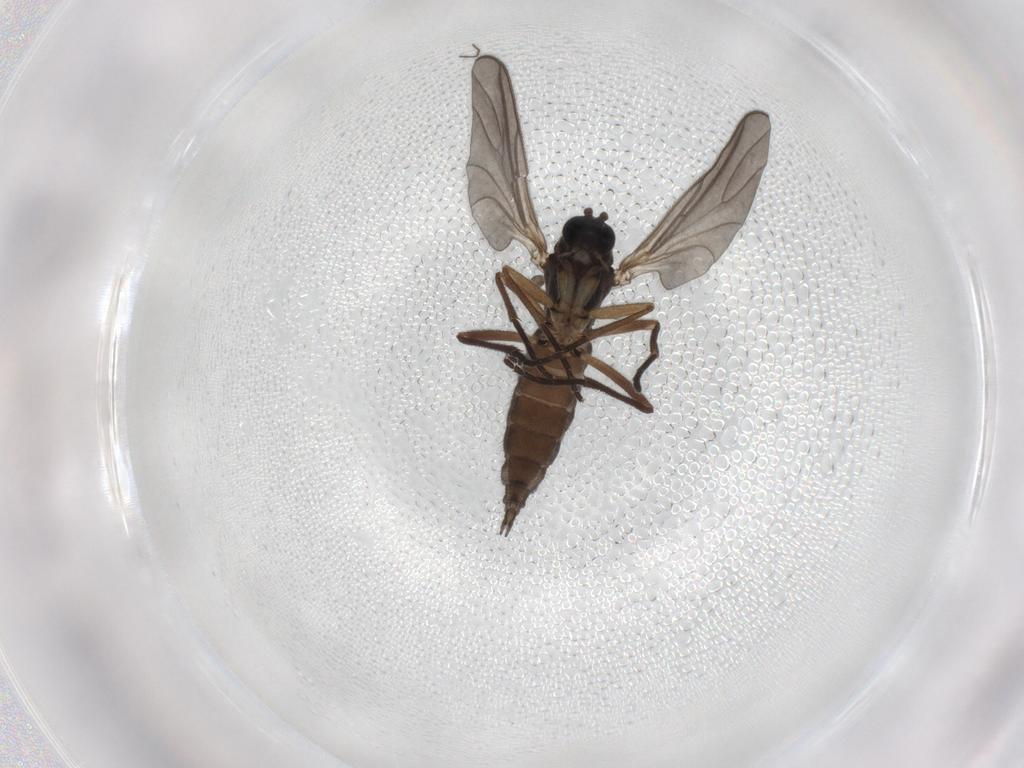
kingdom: Animalia
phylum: Arthropoda
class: Insecta
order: Diptera
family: Sciaridae
